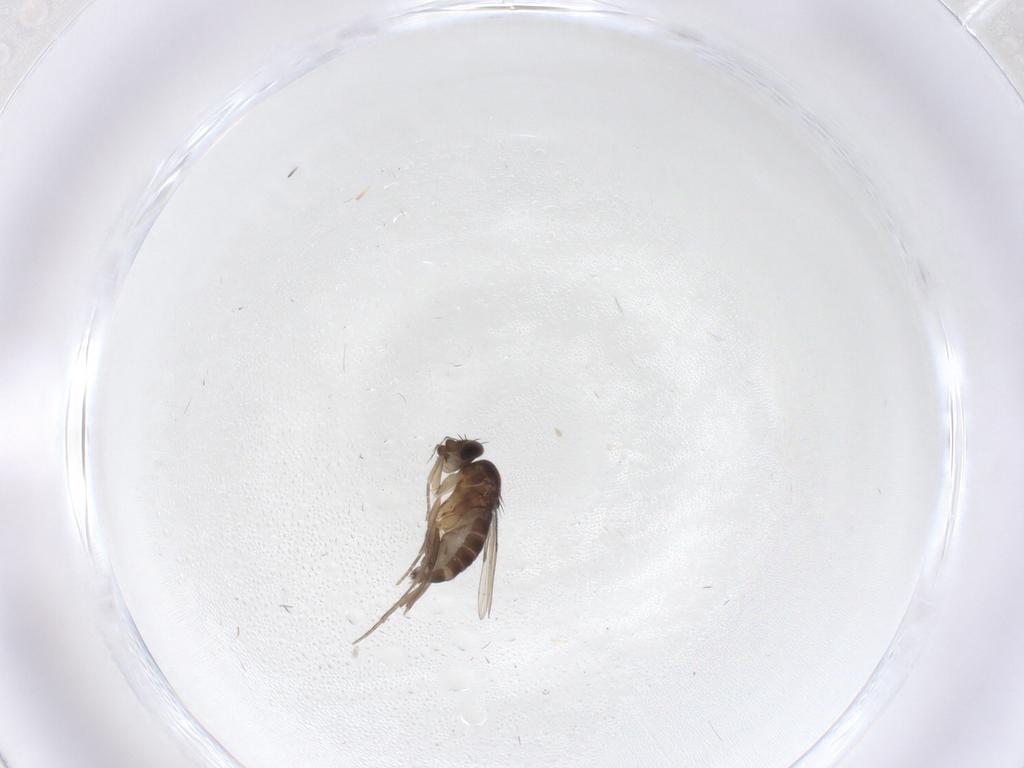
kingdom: Animalia
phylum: Arthropoda
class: Insecta
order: Diptera
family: Phoridae
